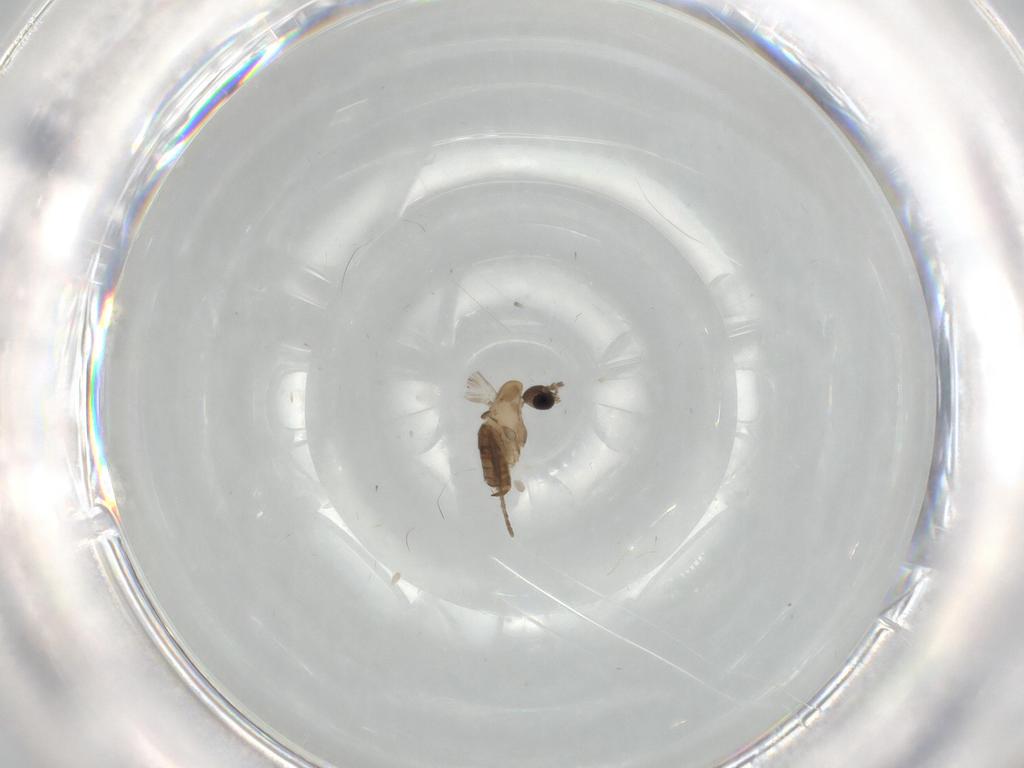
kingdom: Animalia
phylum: Arthropoda
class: Insecta
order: Diptera
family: Psychodidae
